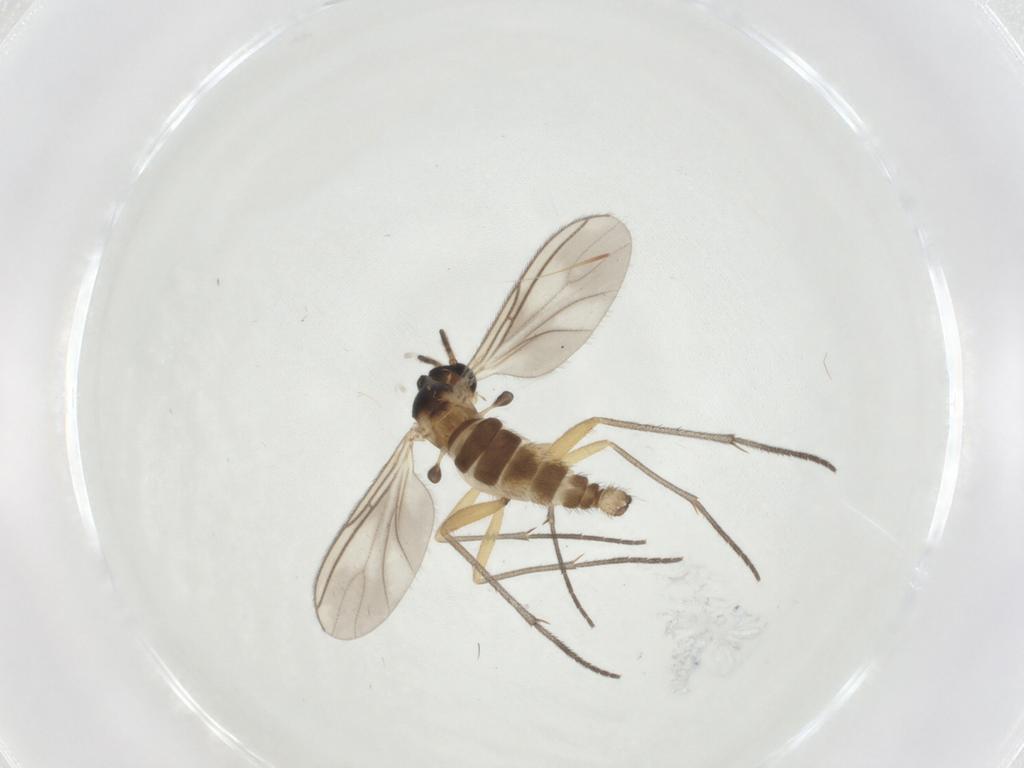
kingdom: Animalia
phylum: Arthropoda
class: Insecta
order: Diptera
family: Sciaridae
